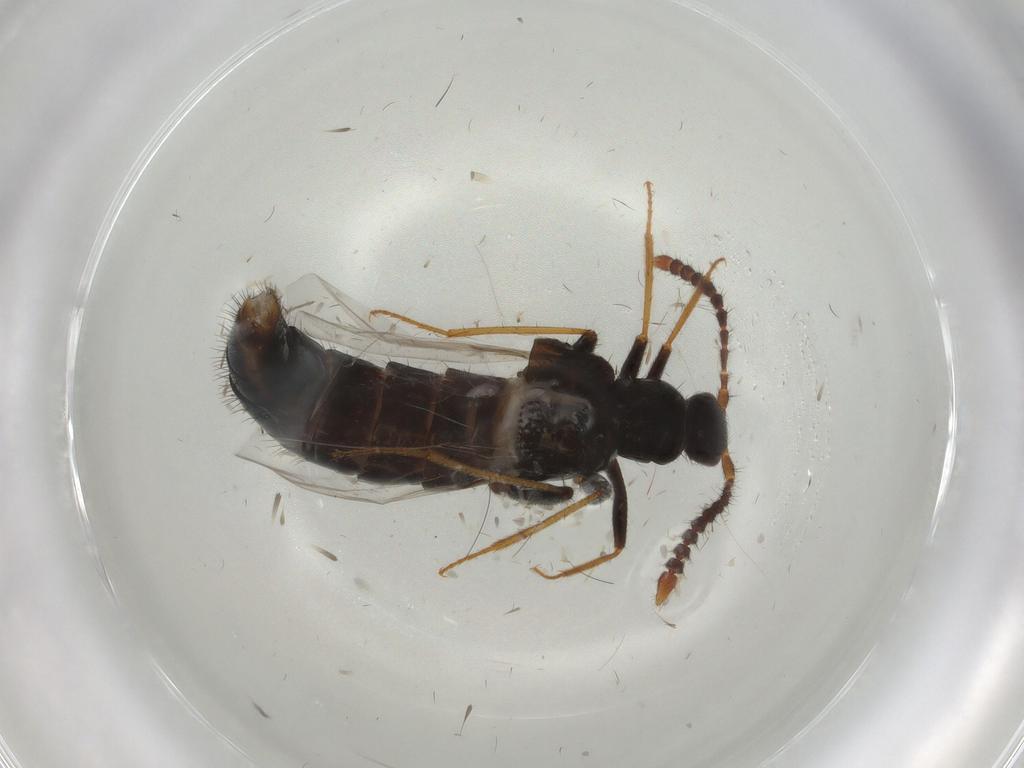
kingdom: Animalia
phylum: Arthropoda
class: Insecta
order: Coleoptera
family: Staphylinidae
